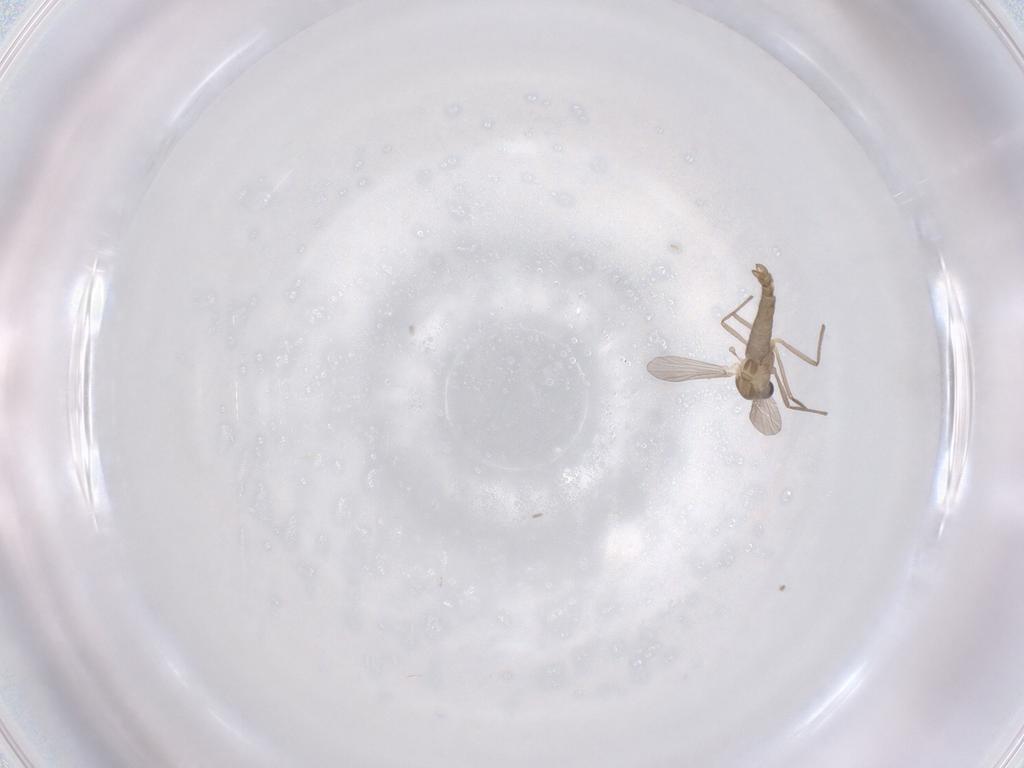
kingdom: Animalia
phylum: Arthropoda
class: Insecta
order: Diptera
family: Chironomidae
